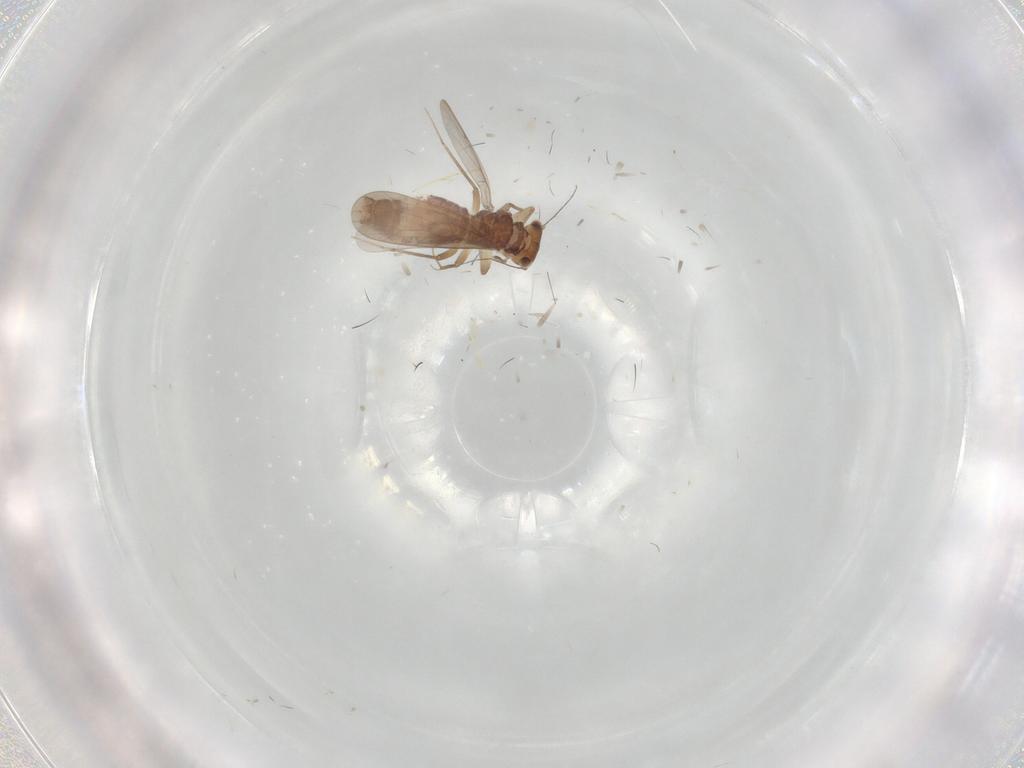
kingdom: Animalia
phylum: Arthropoda
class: Insecta
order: Psocodea
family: Lepidopsocidae
